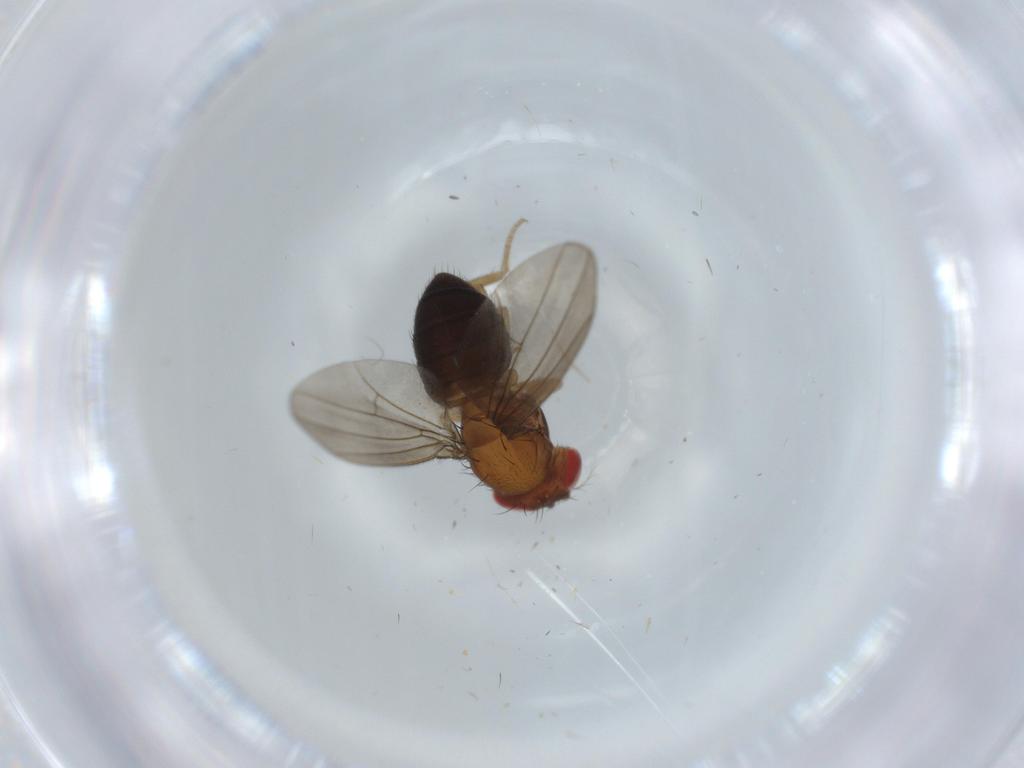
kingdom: Animalia
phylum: Arthropoda
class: Insecta
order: Diptera
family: Drosophilidae
